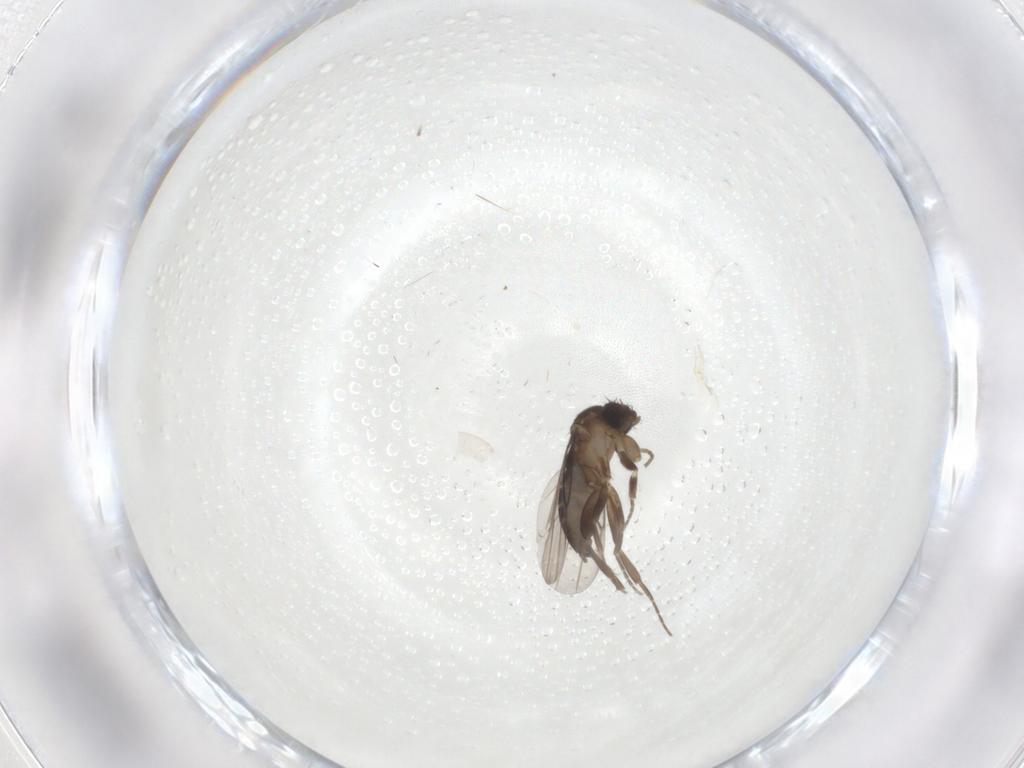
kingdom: Animalia
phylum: Arthropoda
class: Insecta
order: Diptera
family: Phoridae
